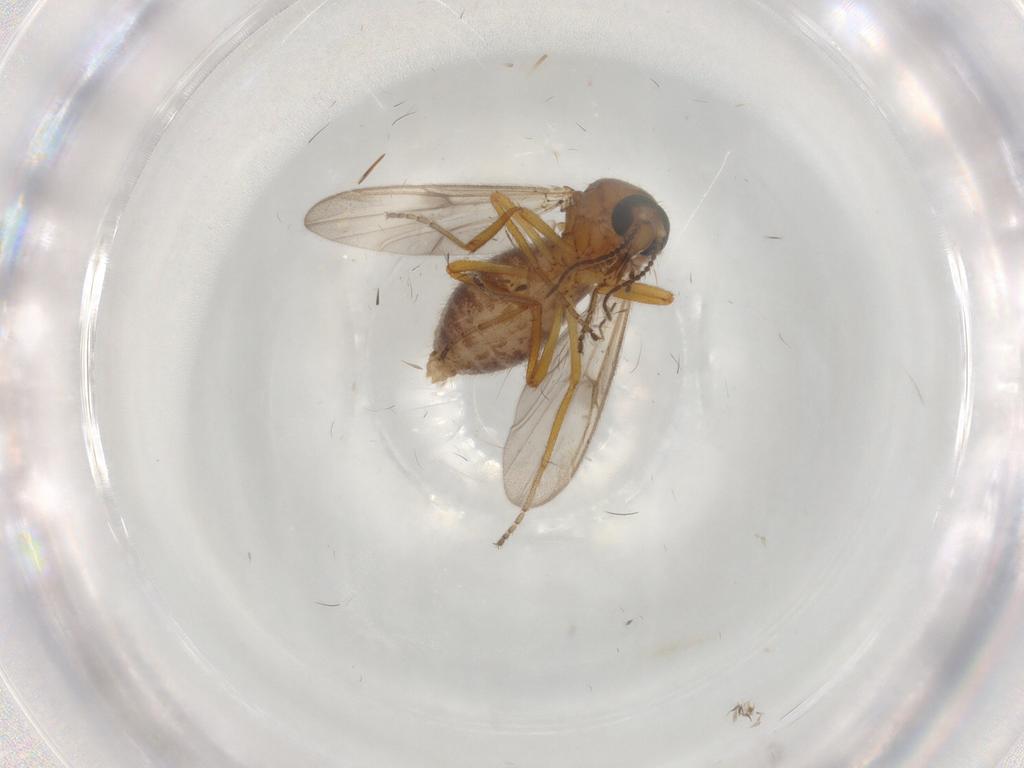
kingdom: Animalia
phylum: Arthropoda
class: Insecta
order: Diptera
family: Ceratopogonidae
